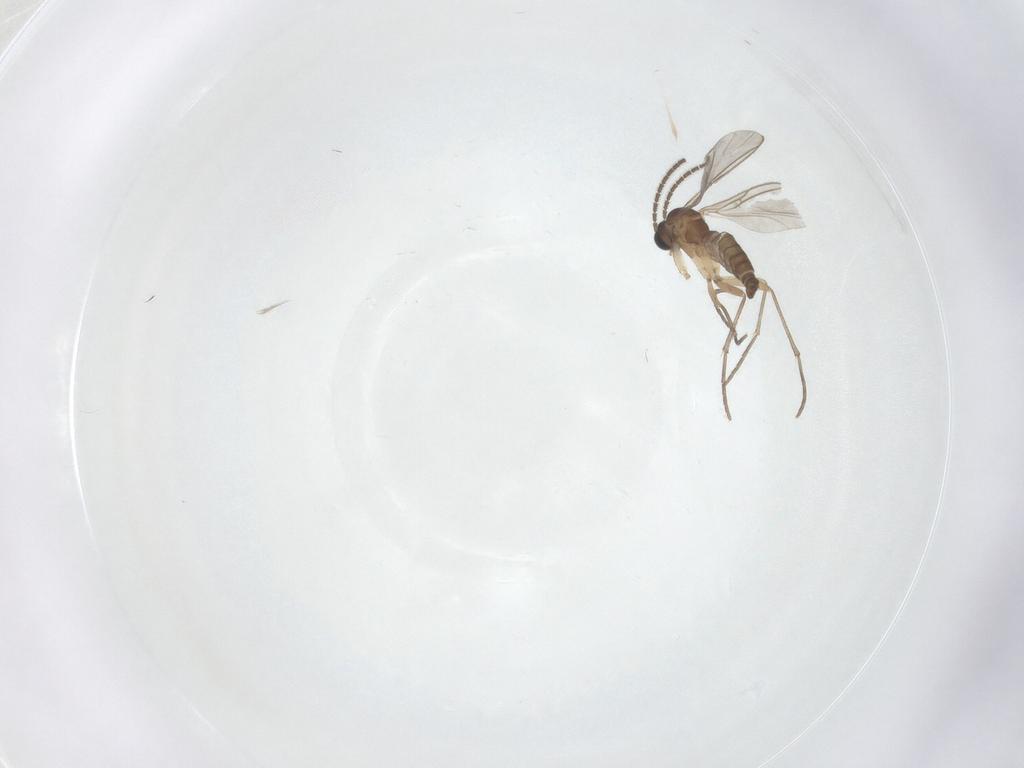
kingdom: Animalia
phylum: Arthropoda
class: Insecta
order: Diptera
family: Sciaridae
